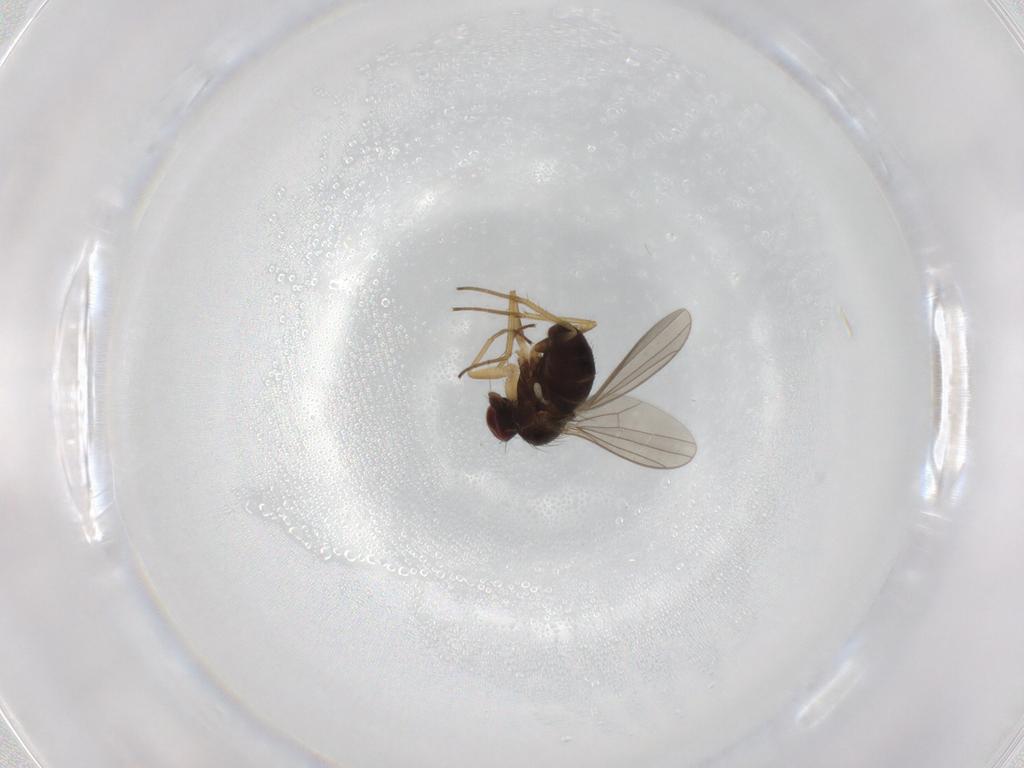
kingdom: Animalia
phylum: Arthropoda
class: Insecta
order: Diptera
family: Dolichopodidae
